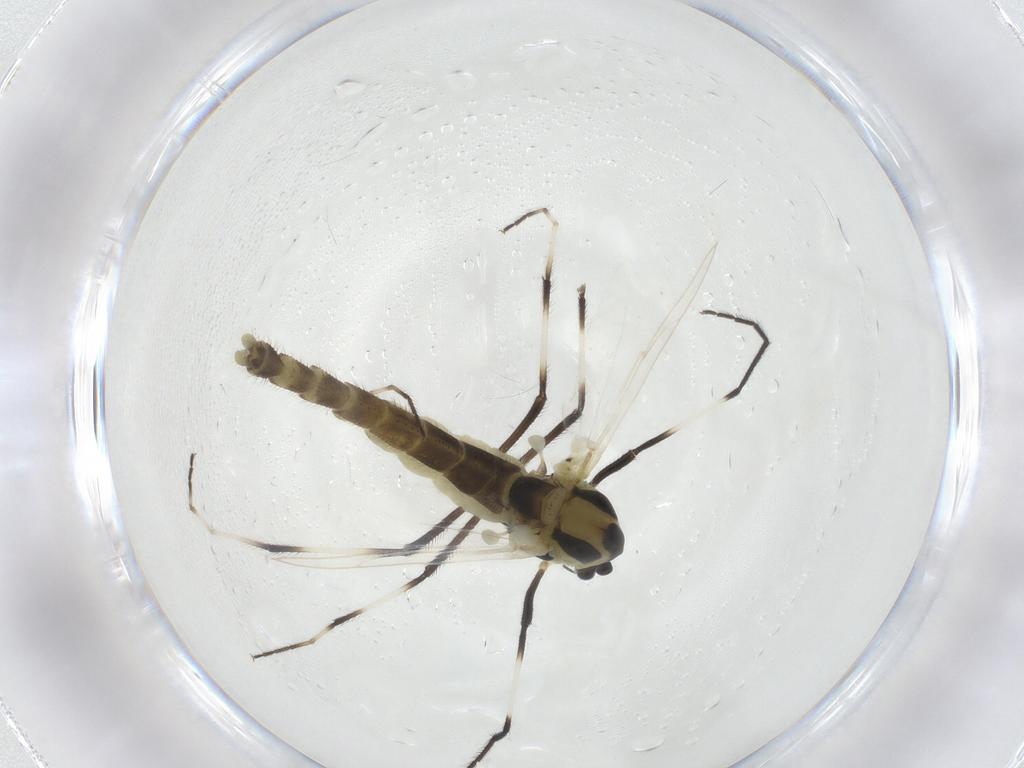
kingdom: Animalia
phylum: Arthropoda
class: Insecta
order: Diptera
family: Chironomidae
